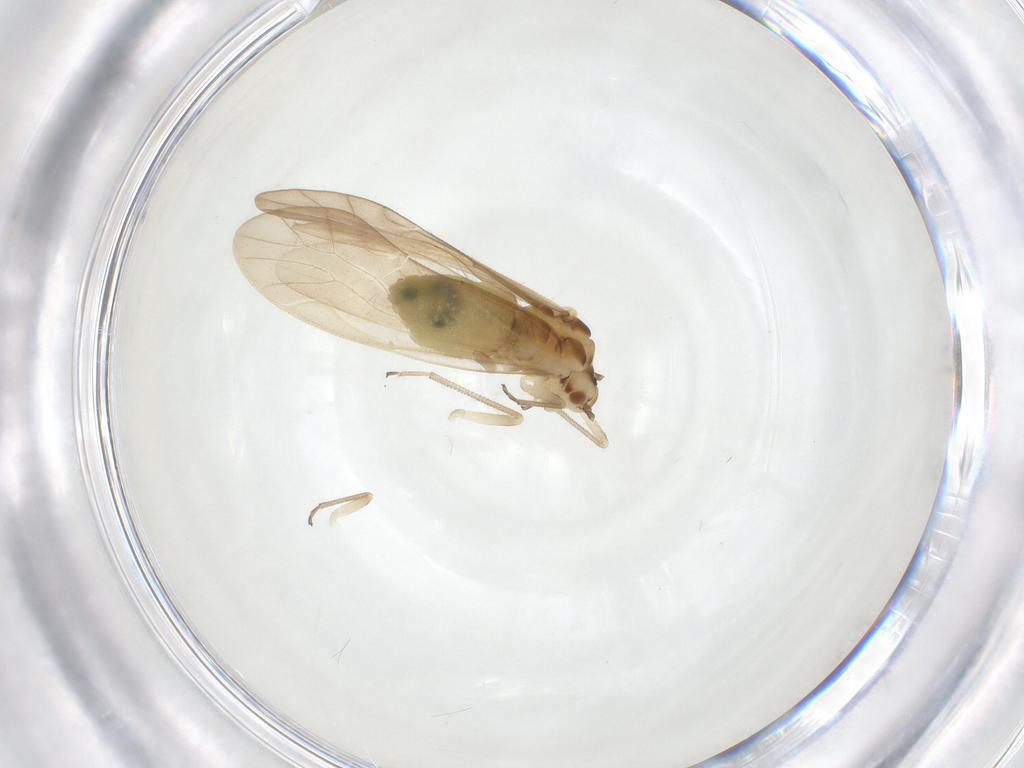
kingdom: Animalia
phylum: Arthropoda
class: Insecta
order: Psocodea
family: Caeciliusidae
